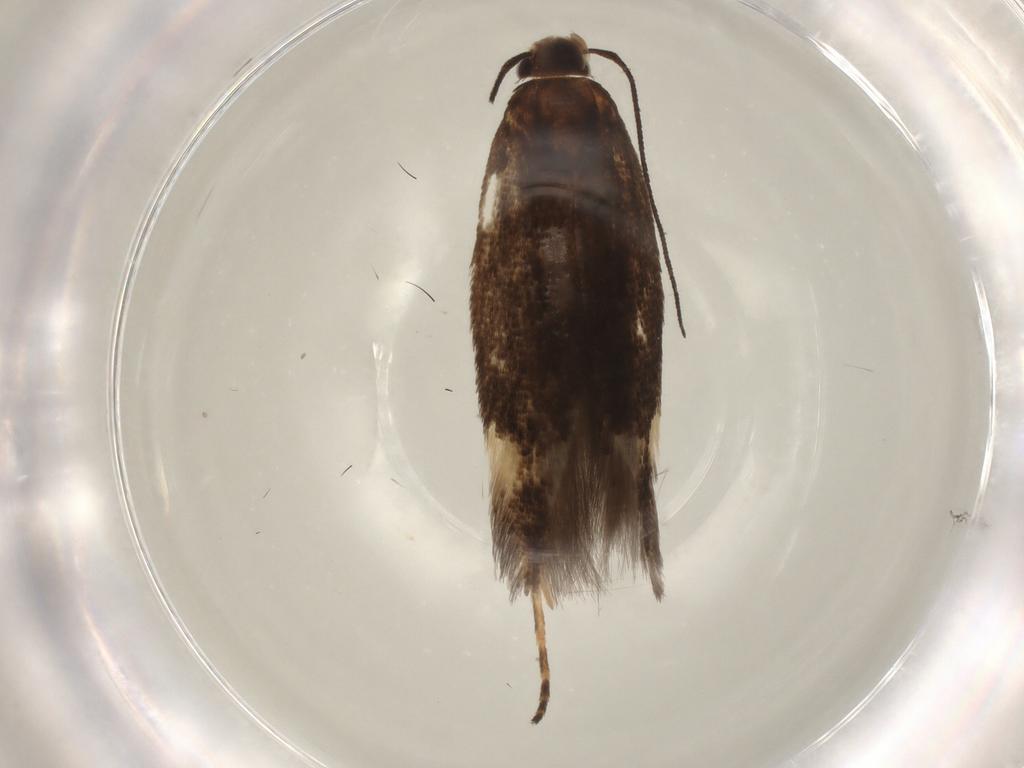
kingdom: Animalia
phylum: Arthropoda
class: Insecta
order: Lepidoptera
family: Gelechiidae
